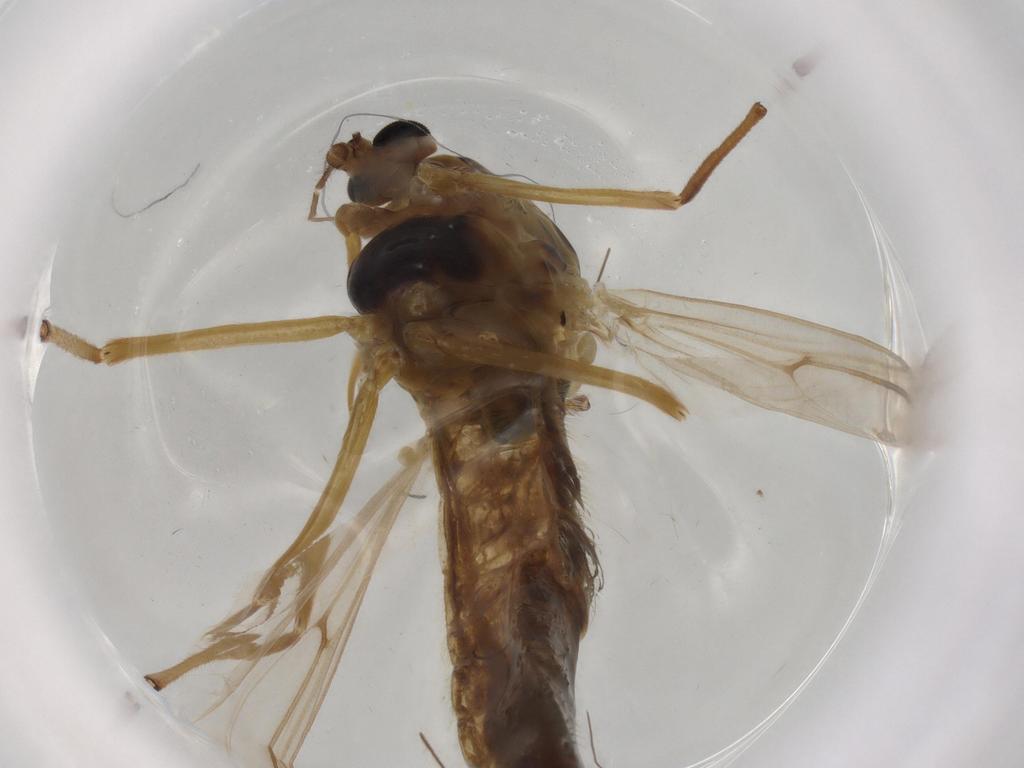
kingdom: Animalia
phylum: Arthropoda
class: Insecta
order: Diptera
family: Chironomidae
